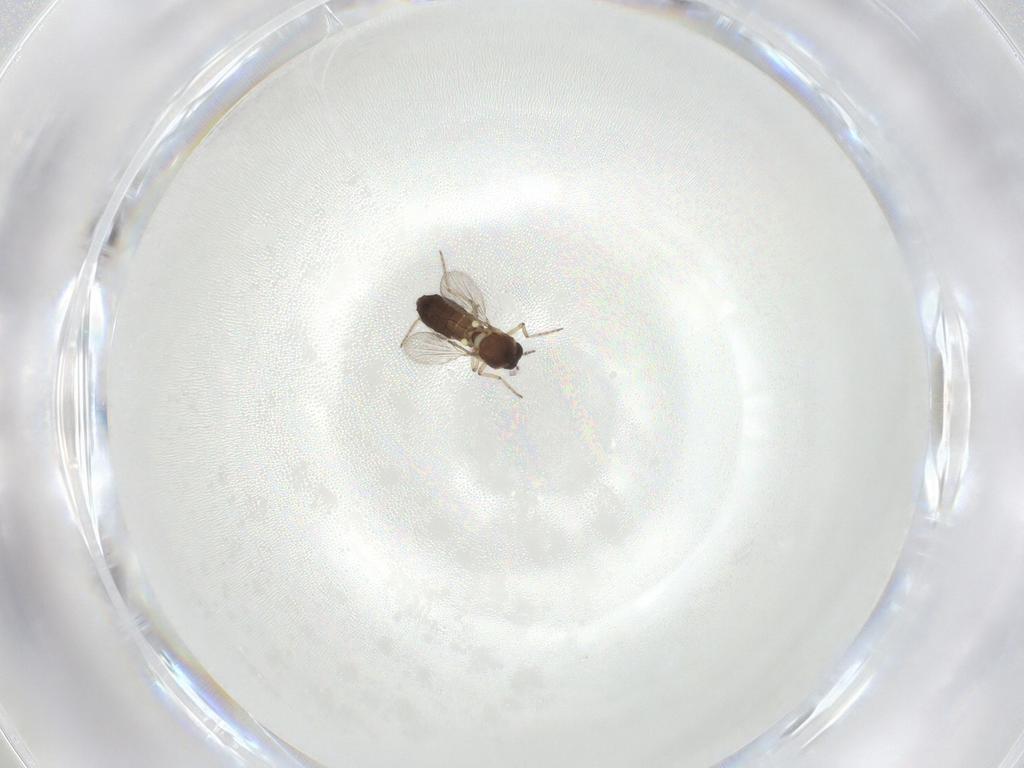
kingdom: Animalia
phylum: Arthropoda
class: Insecta
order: Diptera
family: Ceratopogonidae
